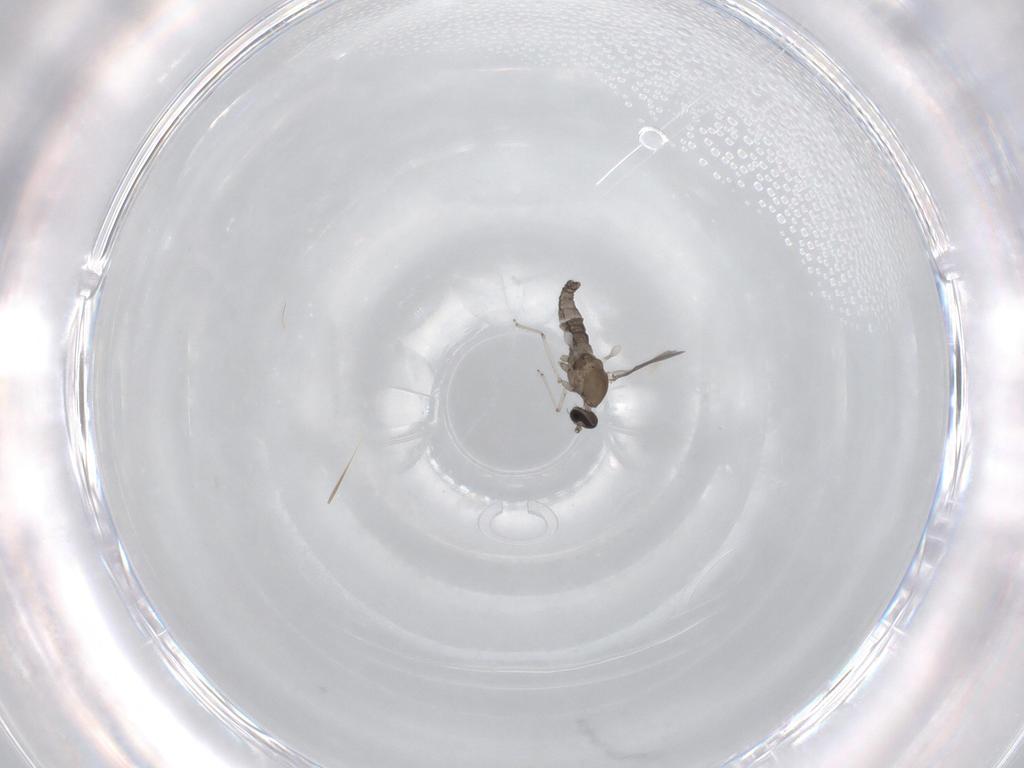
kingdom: Animalia
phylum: Arthropoda
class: Insecta
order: Diptera
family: Cecidomyiidae
